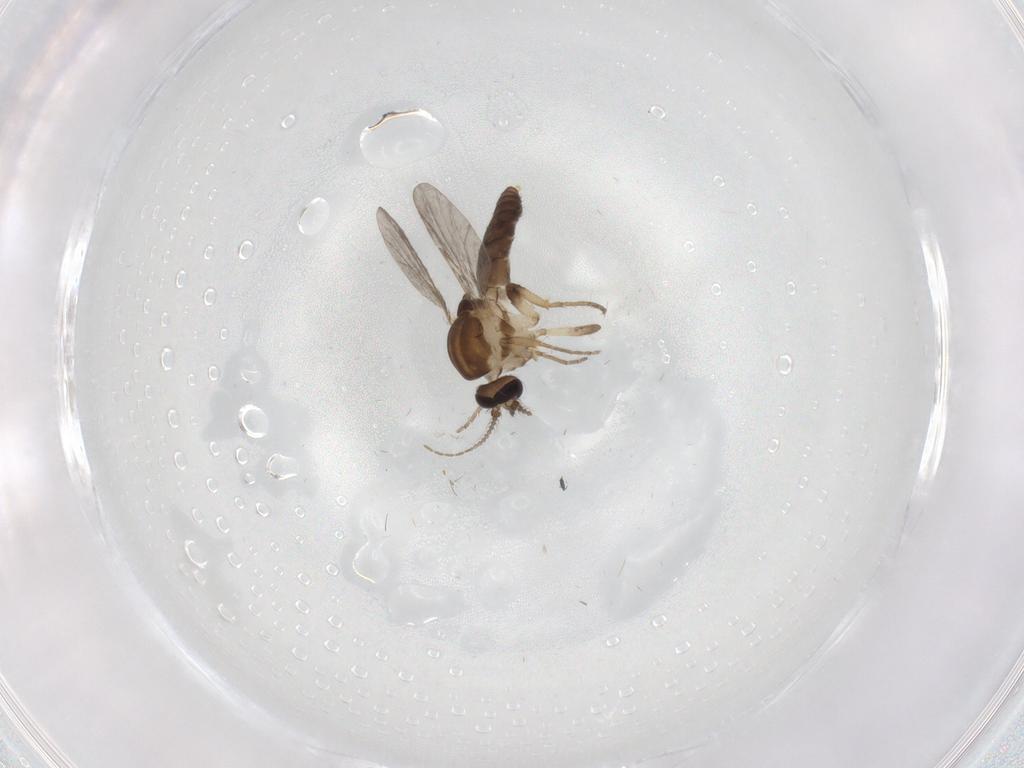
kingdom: Animalia
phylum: Arthropoda
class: Insecta
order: Diptera
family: Ceratopogonidae
